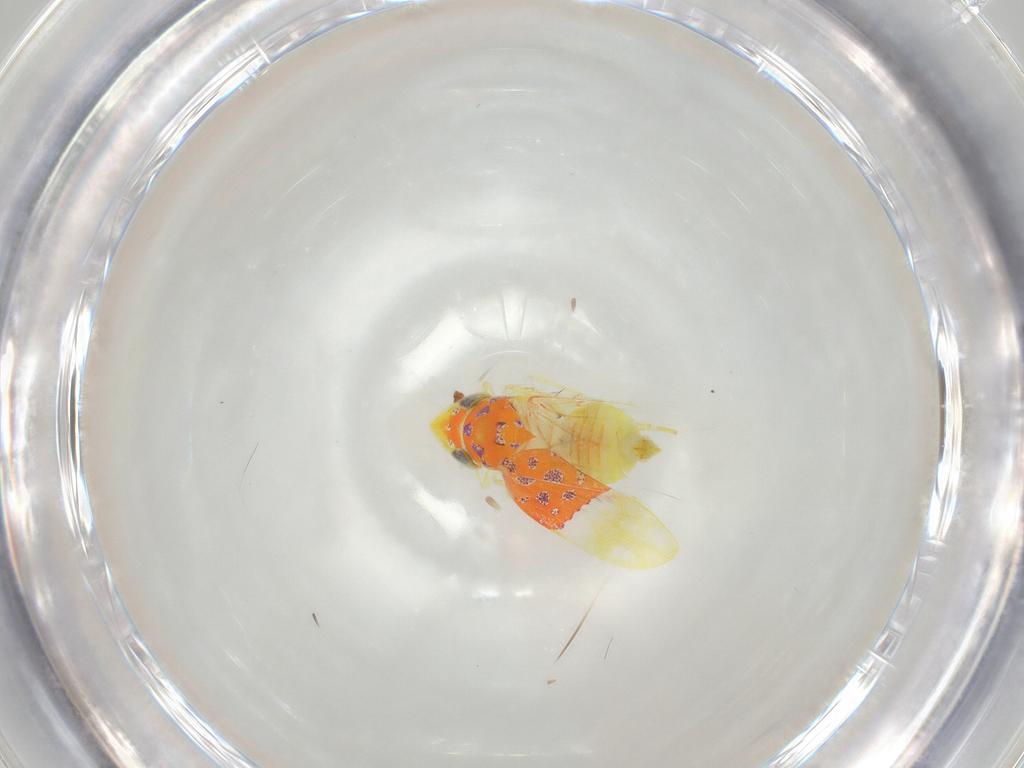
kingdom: Animalia
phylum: Arthropoda
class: Insecta
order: Hemiptera
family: Cicadellidae
